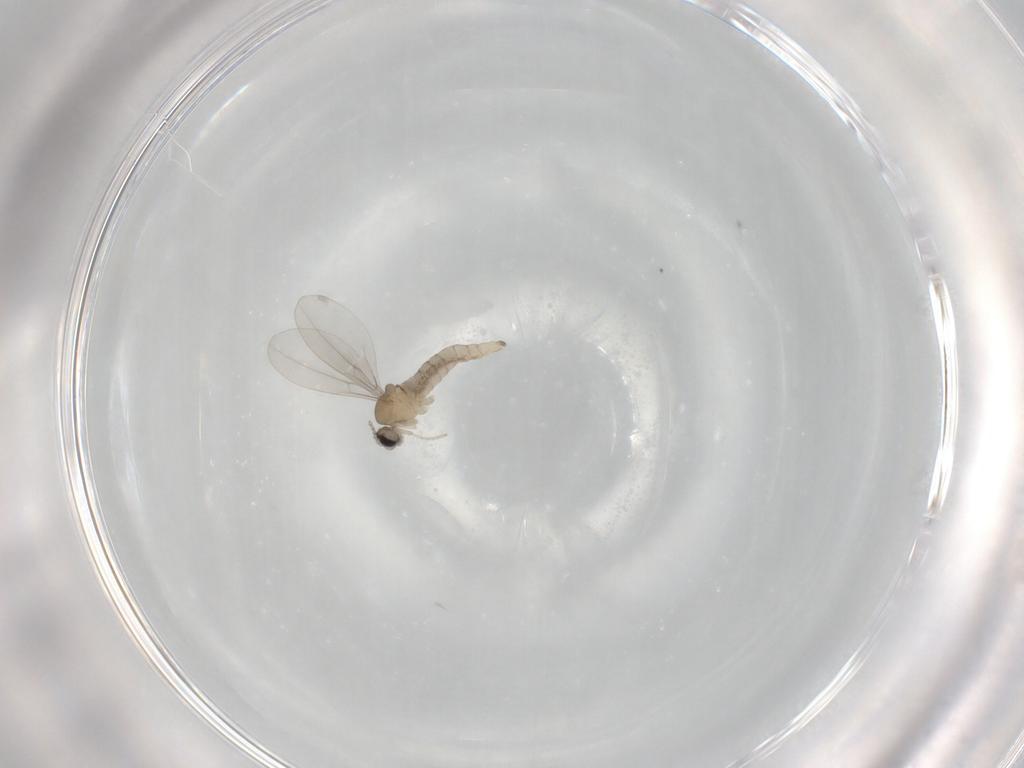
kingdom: Animalia
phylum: Arthropoda
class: Insecta
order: Diptera
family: Cecidomyiidae
